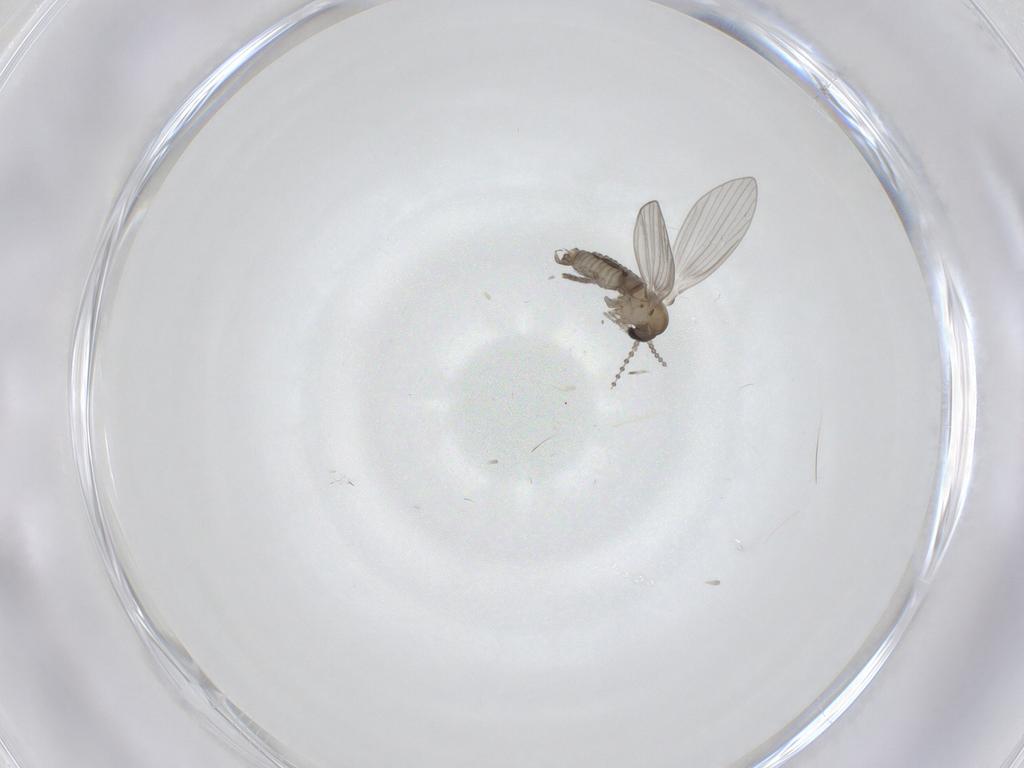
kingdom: Animalia
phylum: Arthropoda
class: Insecta
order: Diptera
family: Psychodidae
